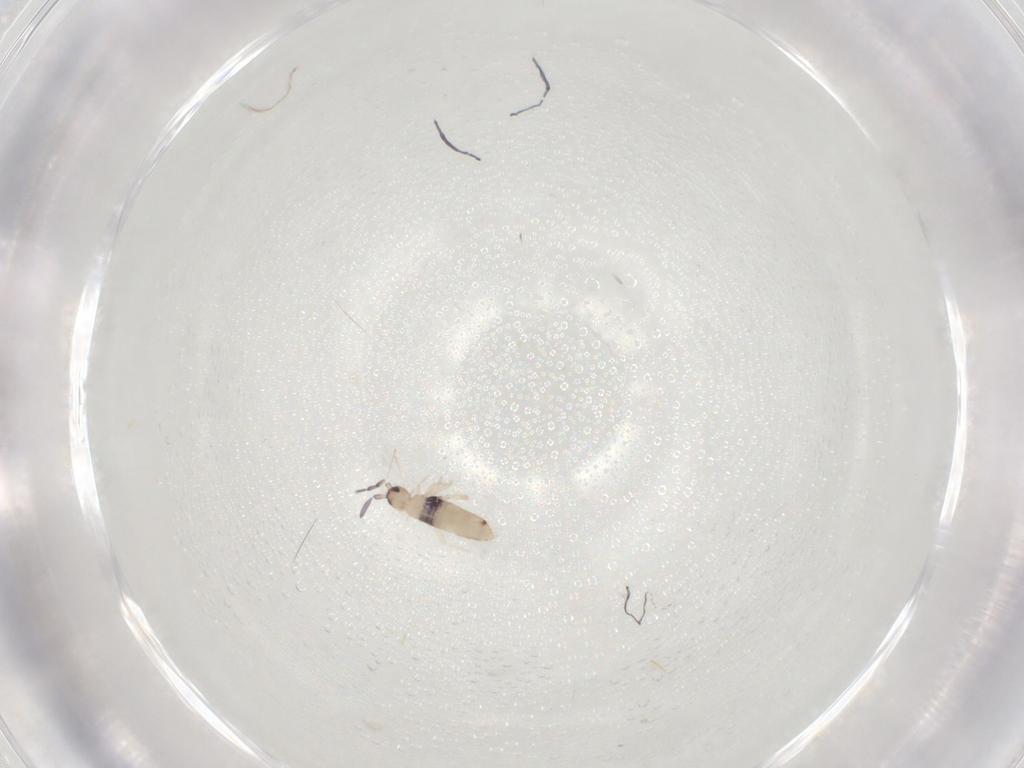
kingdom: Animalia
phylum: Arthropoda
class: Collembola
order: Entomobryomorpha
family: Entomobryidae
